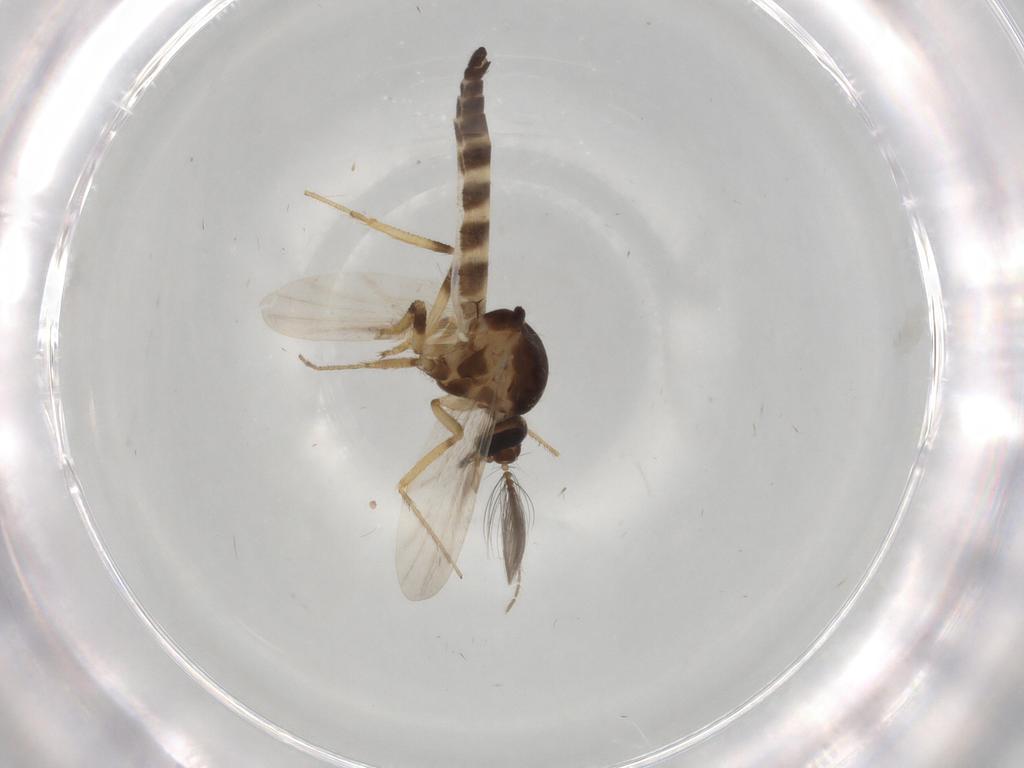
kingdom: Animalia
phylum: Arthropoda
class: Insecta
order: Diptera
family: Ceratopogonidae
